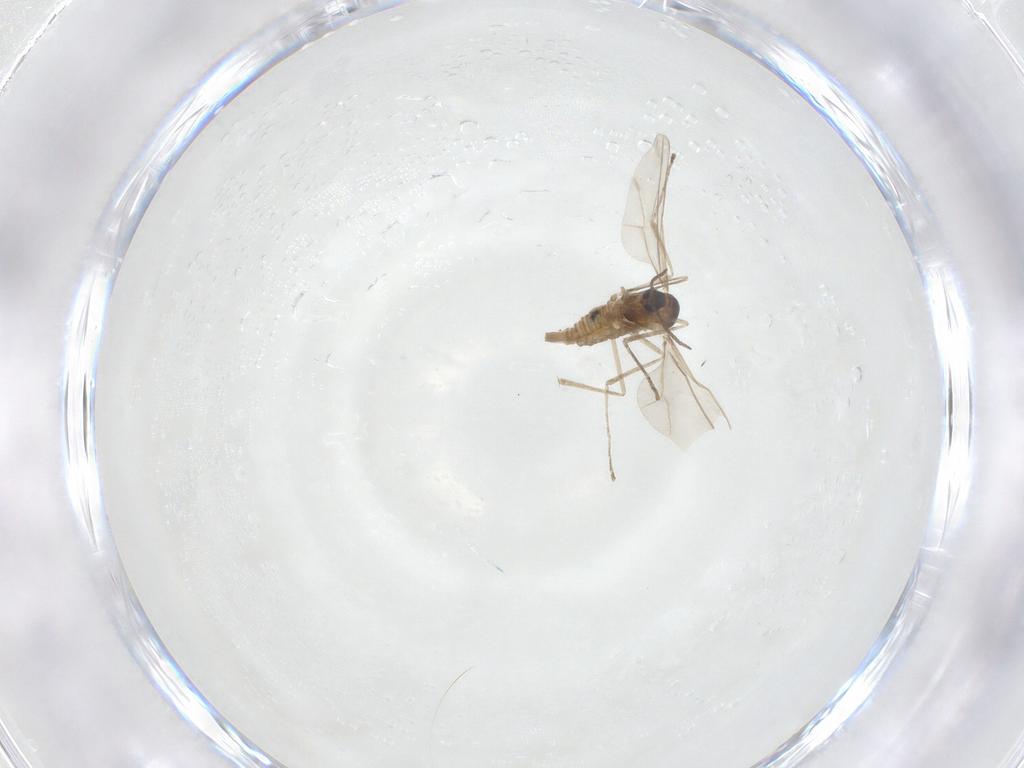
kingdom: Animalia
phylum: Arthropoda
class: Insecta
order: Diptera
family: Cecidomyiidae
